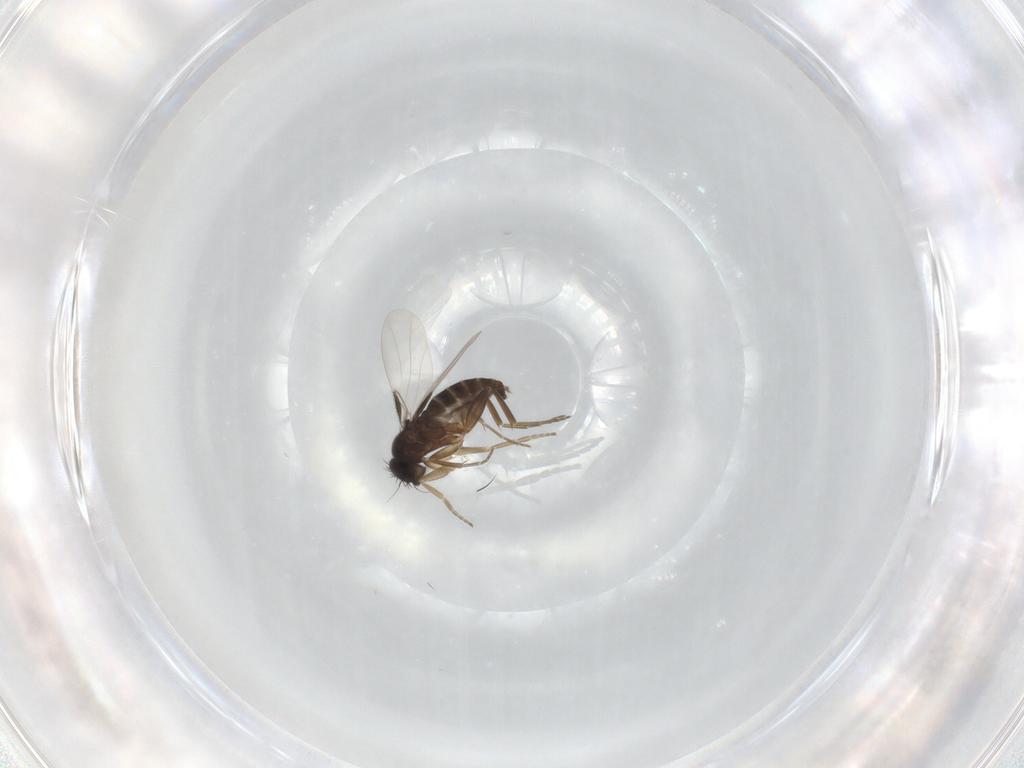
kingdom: Animalia
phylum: Arthropoda
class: Insecta
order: Diptera
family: Phoridae
